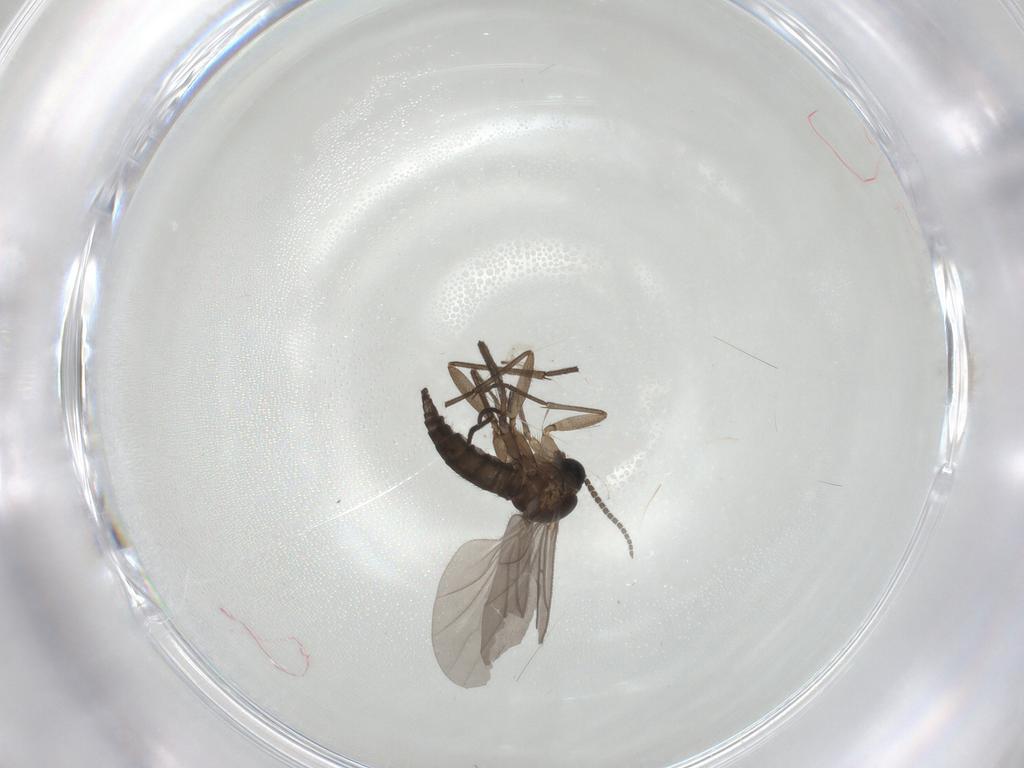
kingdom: Animalia
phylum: Arthropoda
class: Insecta
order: Diptera
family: Sciaridae
